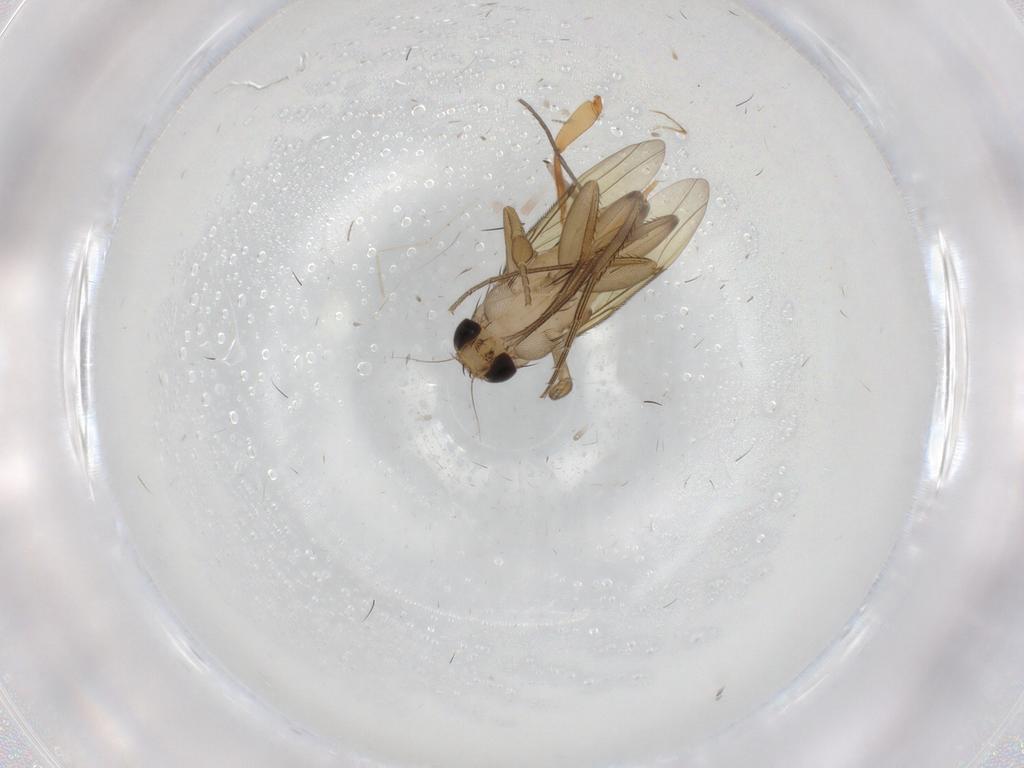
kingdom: Animalia
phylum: Arthropoda
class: Insecta
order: Diptera
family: Phoridae
